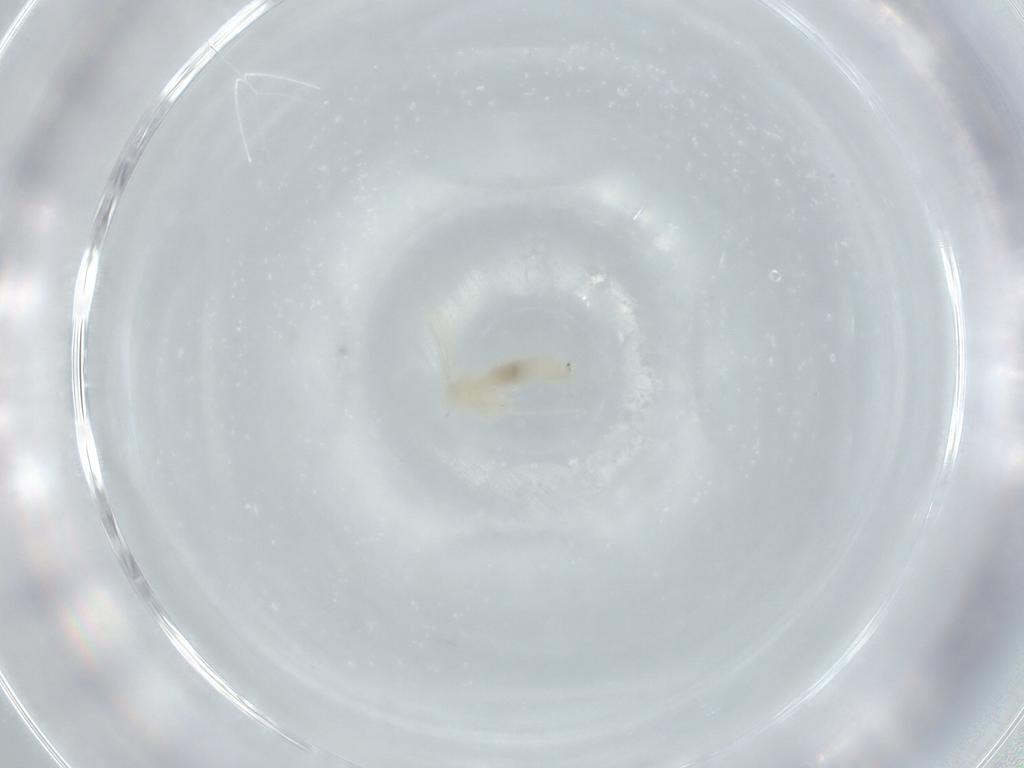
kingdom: Animalia
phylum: Arthropoda
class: Insecta
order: Diptera
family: Cecidomyiidae
